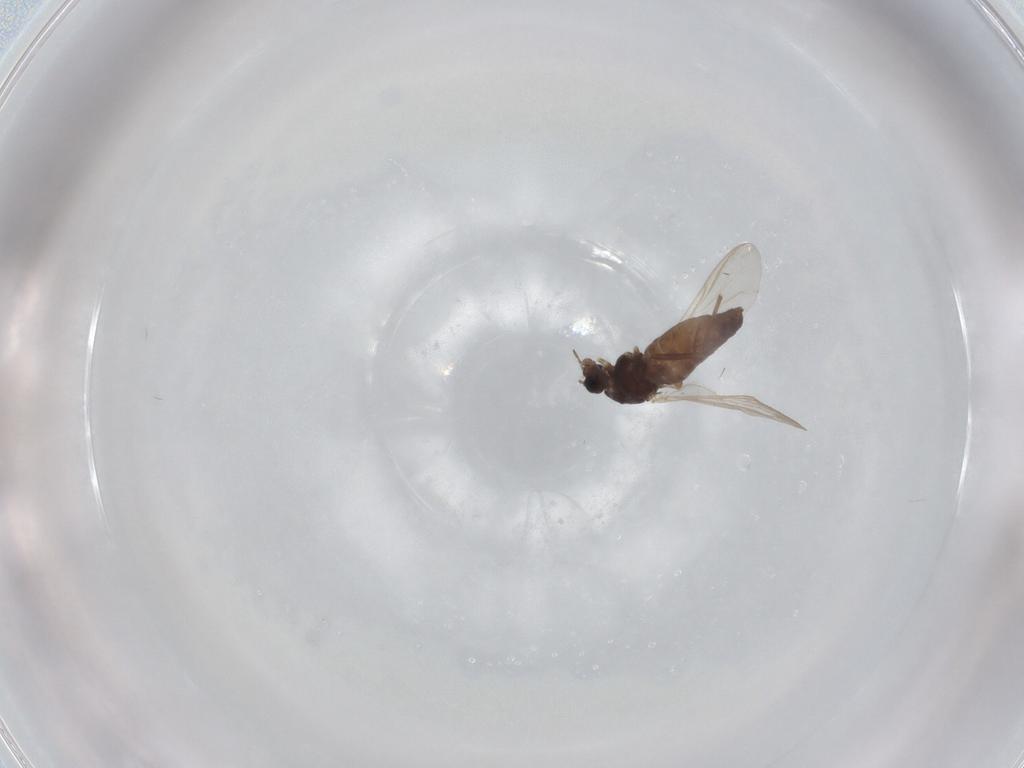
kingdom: Animalia
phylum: Arthropoda
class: Insecta
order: Diptera
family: Chironomidae
